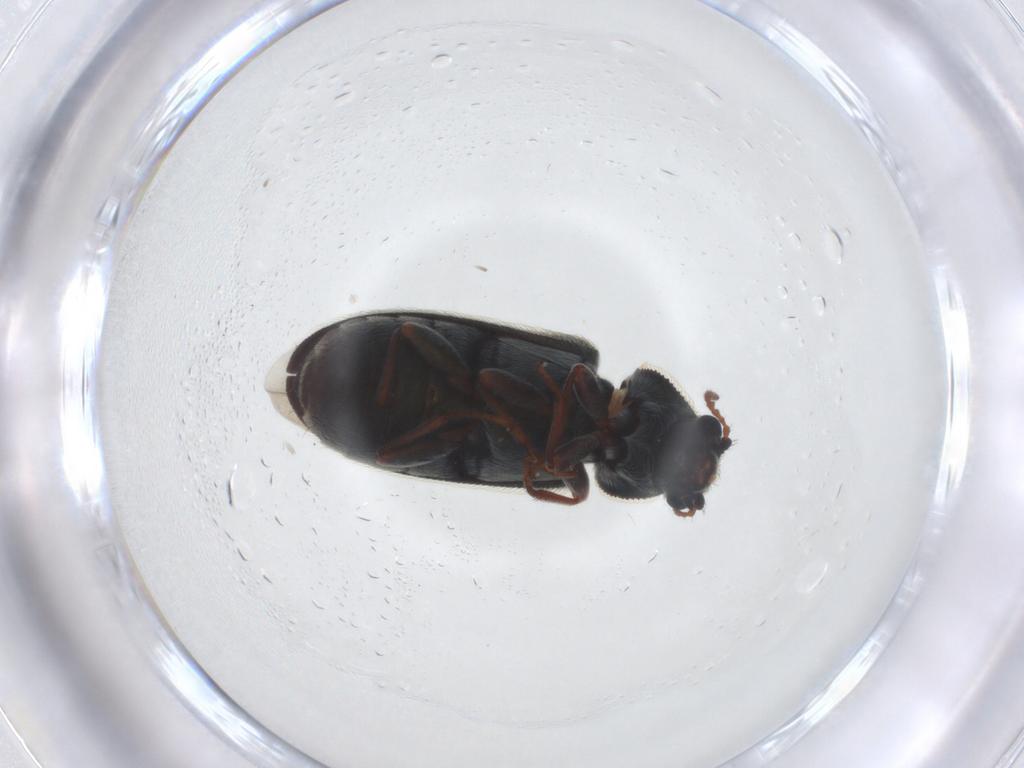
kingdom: Animalia
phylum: Arthropoda
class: Insecta
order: Coleoptera
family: Melyridae
